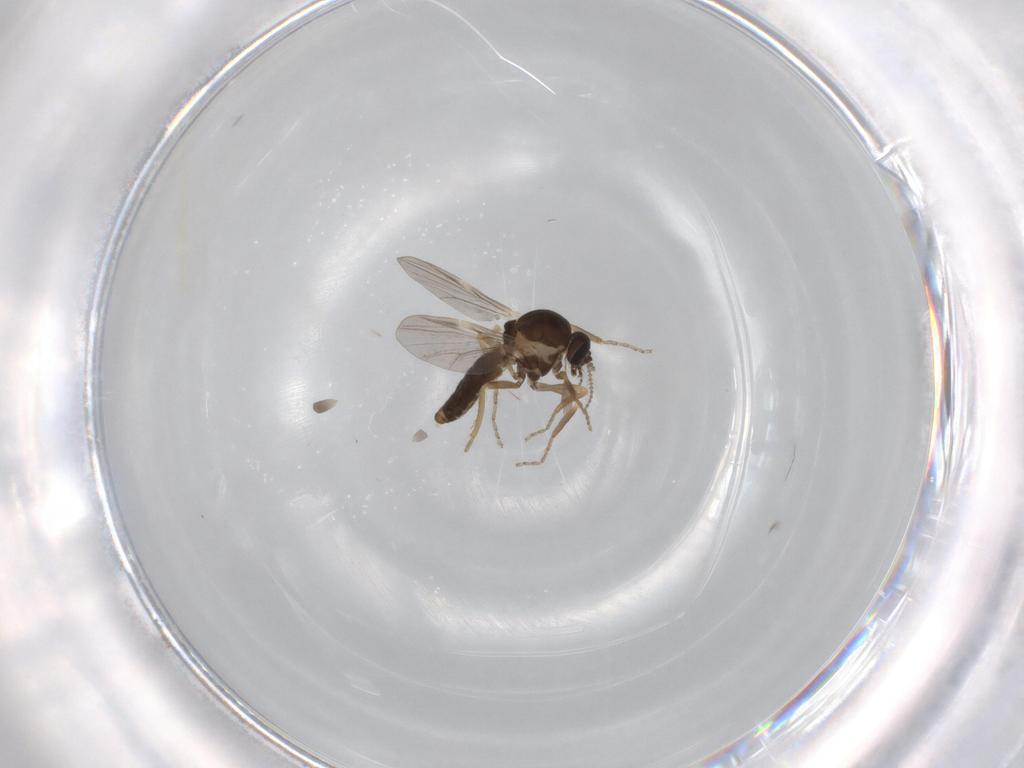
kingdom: Animalia
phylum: Arthropoda
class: Insecta
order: Diptera
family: Ceratopogonidae
